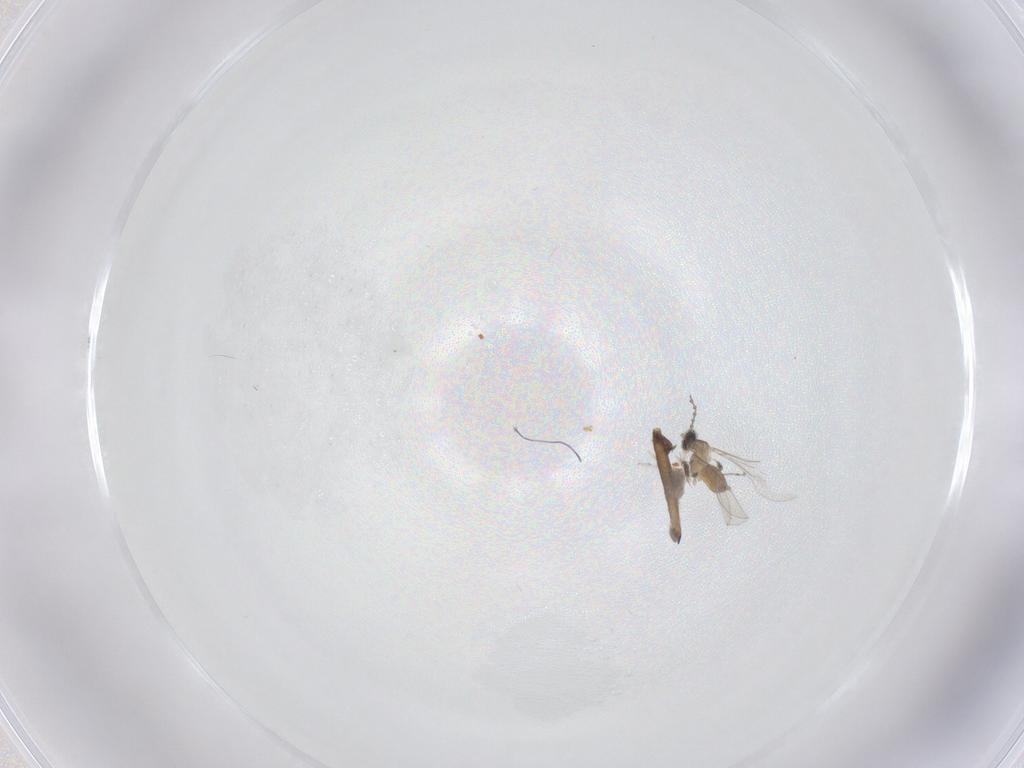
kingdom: Animalia
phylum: Arthropoda
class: Insecta
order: Diptera
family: Cecidomyiidae
